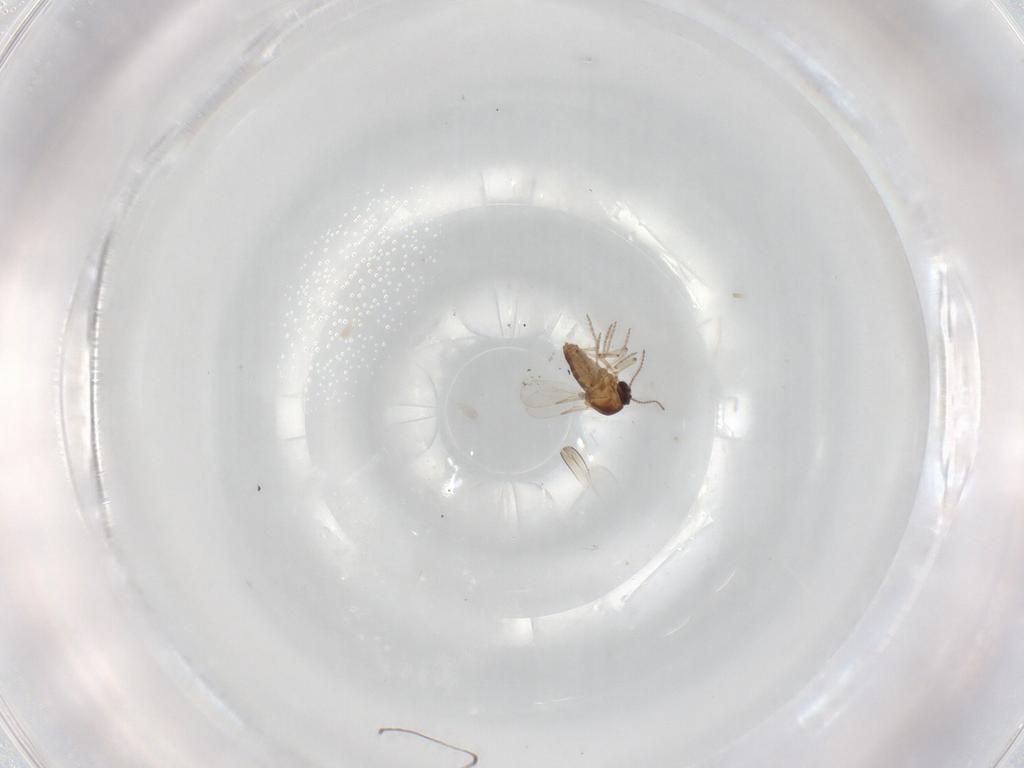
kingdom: Animalia
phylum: Arthropoda
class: Insecta
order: Diptera
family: Ceratopogonidae
